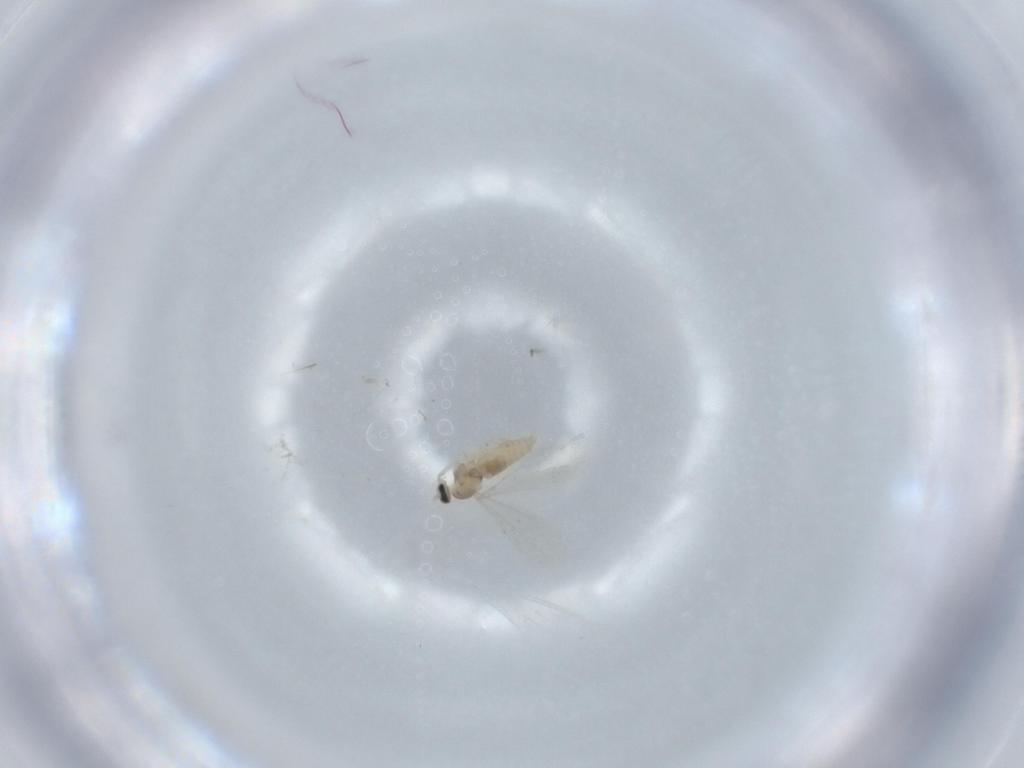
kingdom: Animalia
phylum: Arthropoda
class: Insecta
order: Diptera
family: Cecidomyiidae
